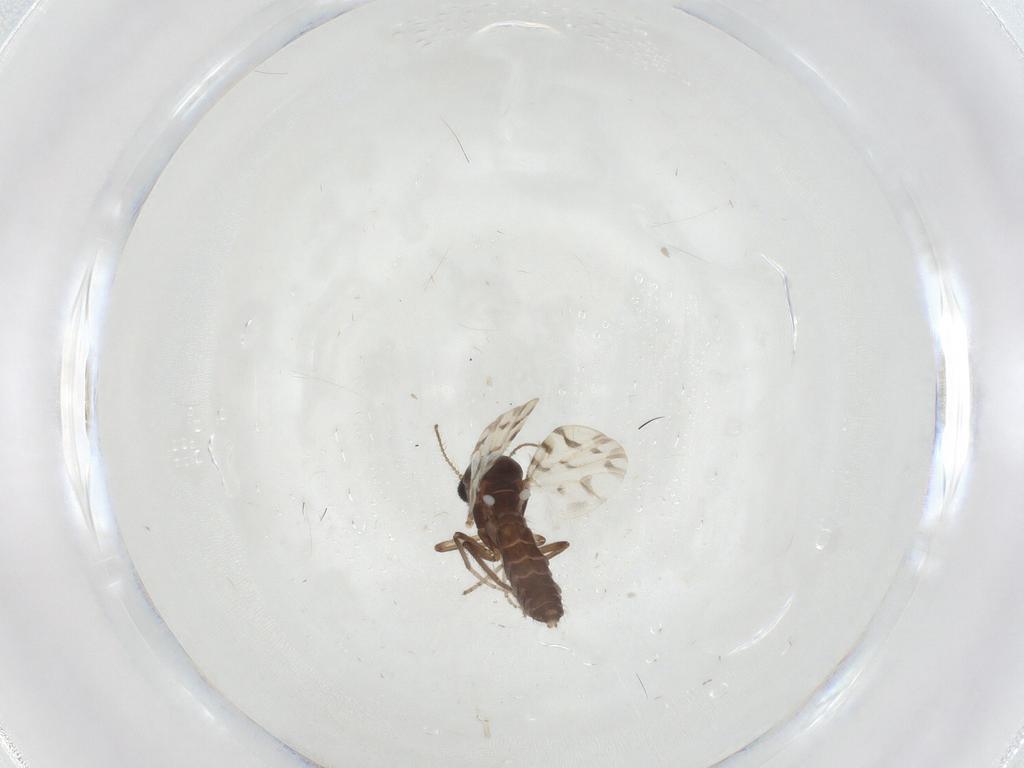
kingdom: Animalia
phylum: Arthropoda
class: Insecta
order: Diptera
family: Ceratopogonidae
